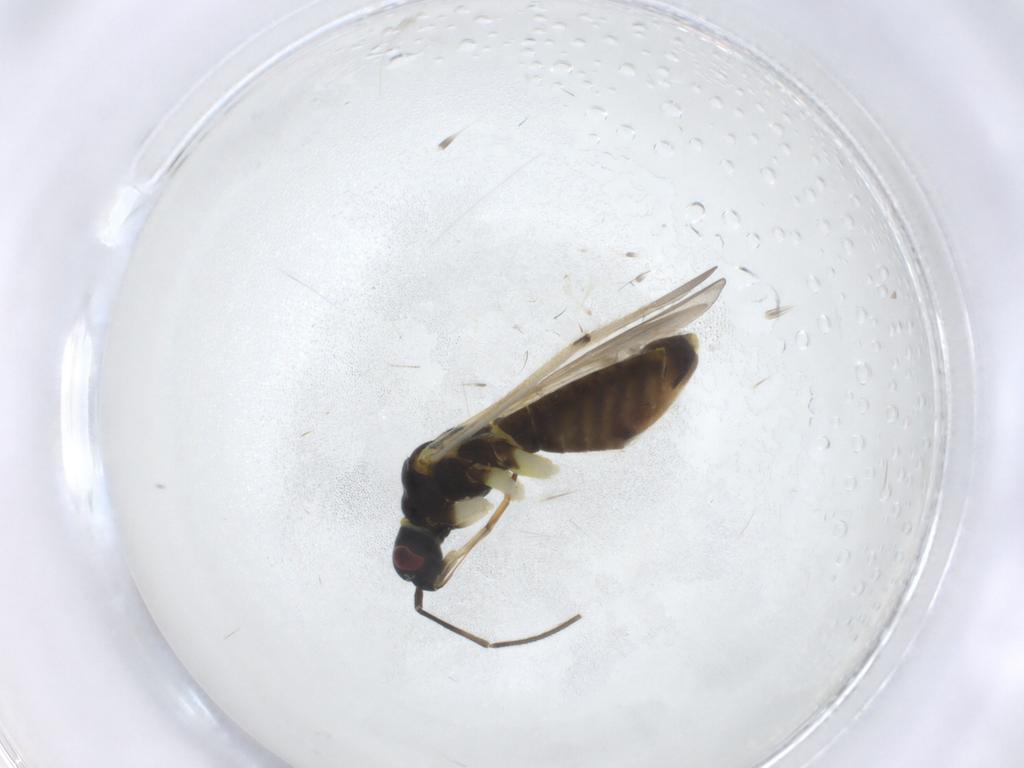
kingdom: Animalia
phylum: Arthropoda
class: Insecta
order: Hemiptera
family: Miridae
